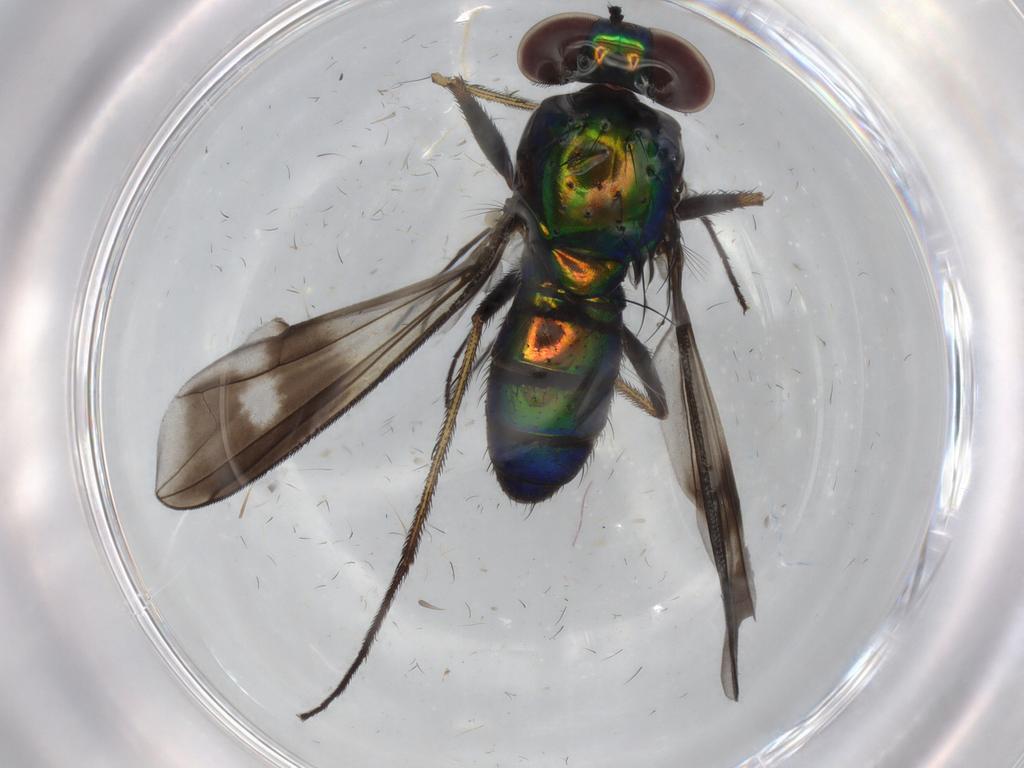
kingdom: Animalia
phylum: Arthropoda
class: Insecta
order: Diptera
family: Dolichopodidae
